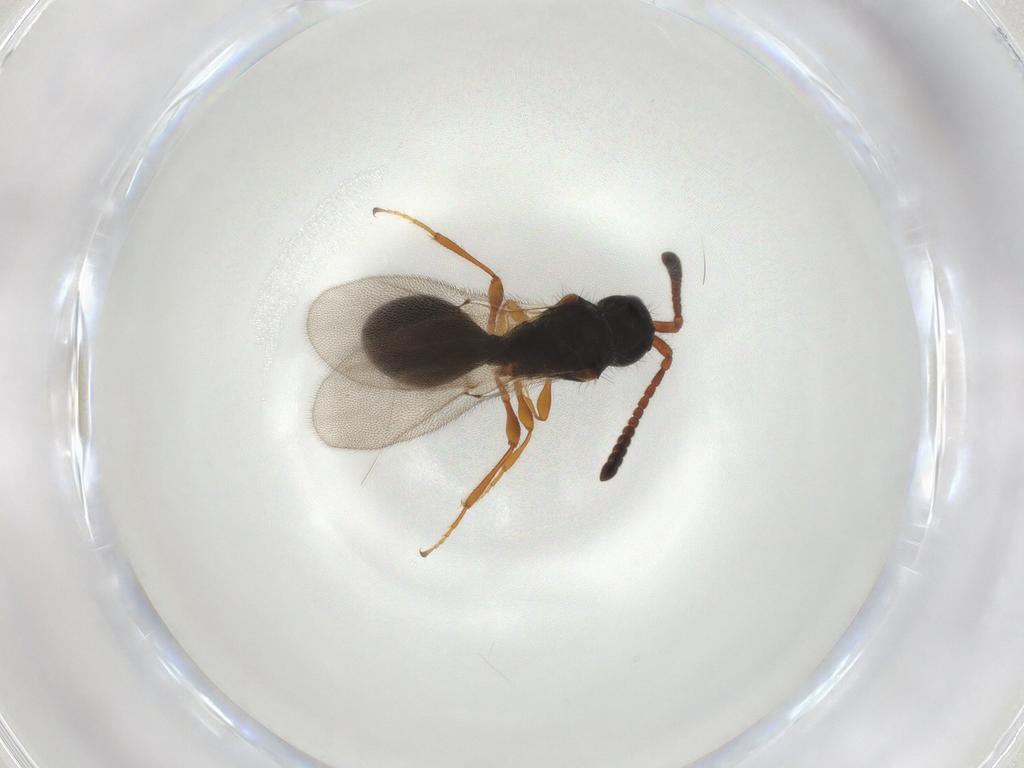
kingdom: Animalia
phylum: Arthropoda
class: Insecta
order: Hymenoptera
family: Diapriidae
